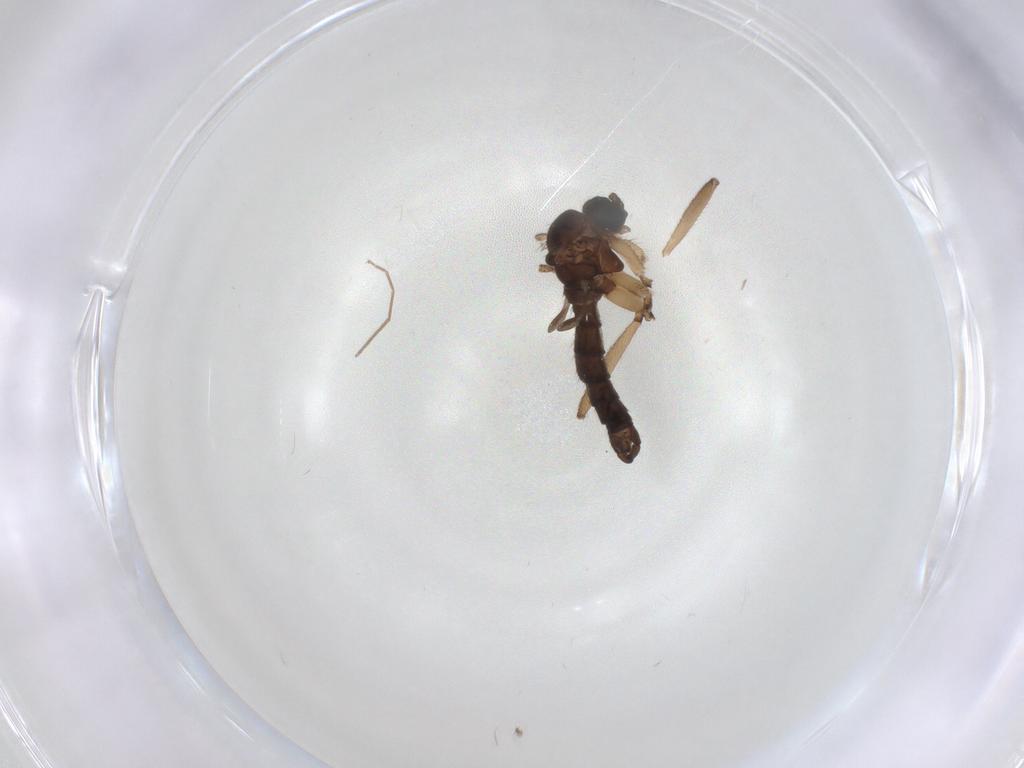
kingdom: Animalia
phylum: Arthropoda
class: Insecta
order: Diptera
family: Sciaridae
